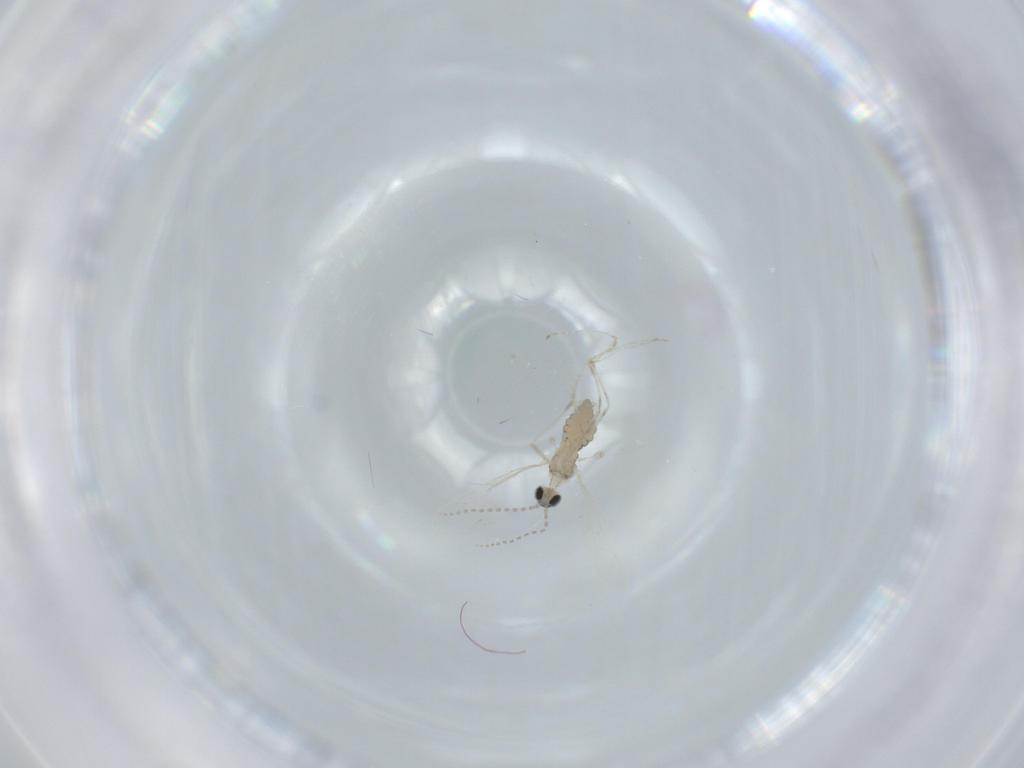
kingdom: Animalia
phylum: Arthropoda
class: Insecta
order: Diptera
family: Cecidomyiidae
